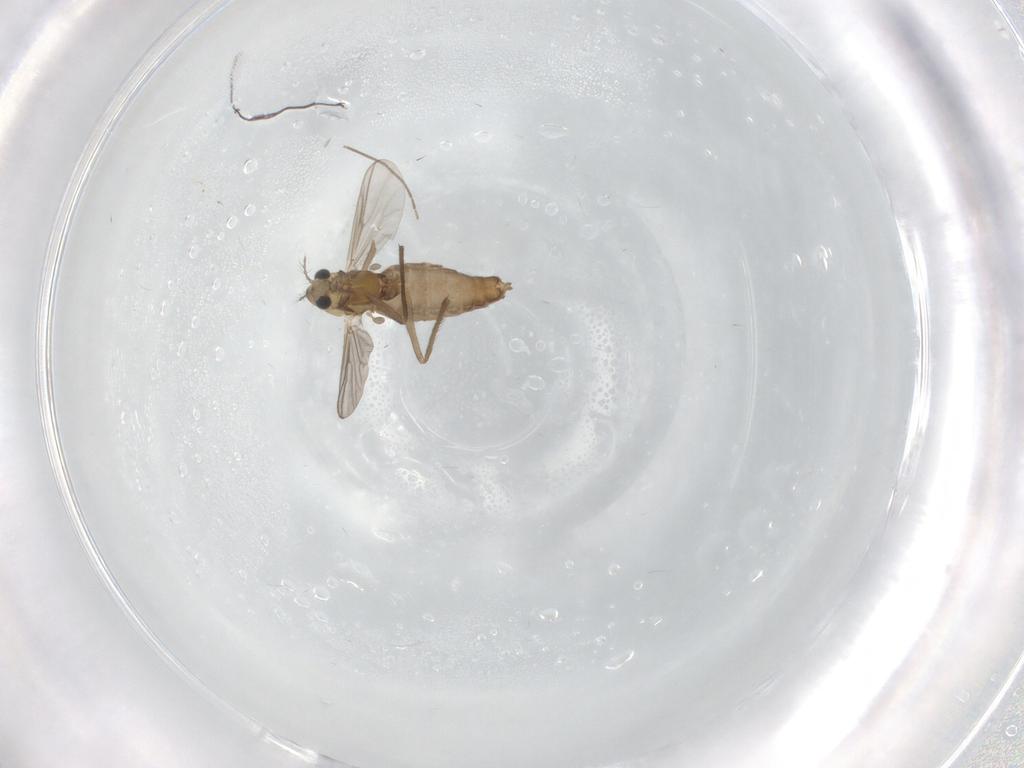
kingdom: Animalia
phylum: Arthropoda
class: Insecta
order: Diptera
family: Chironomidae
